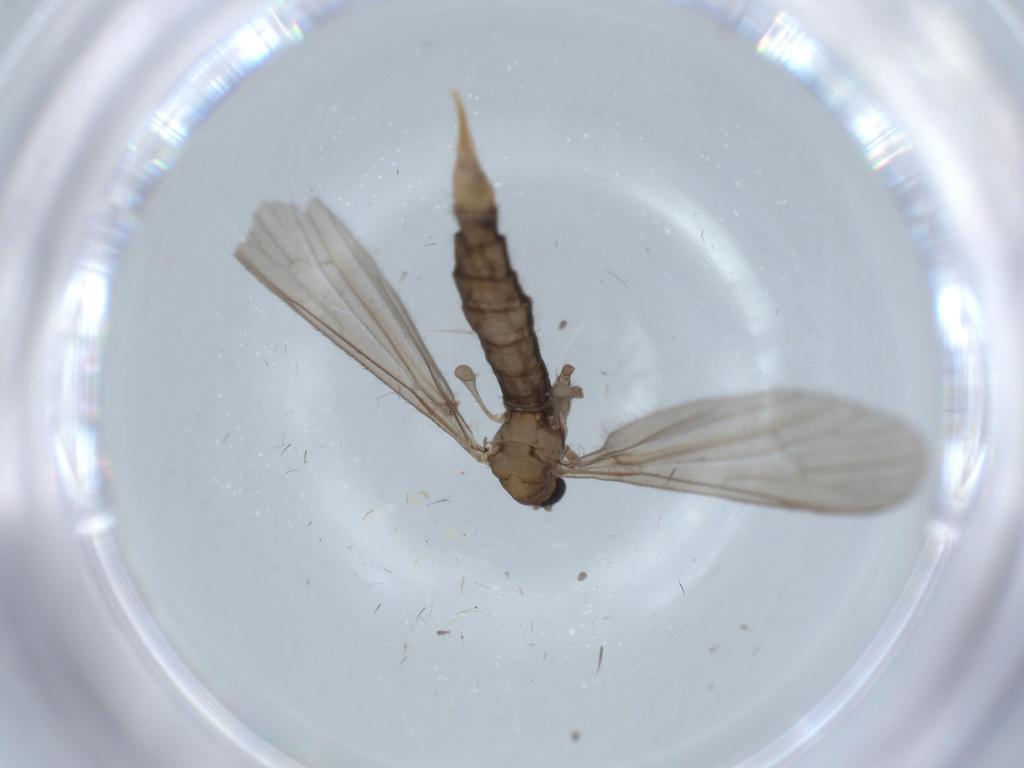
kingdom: Animalia
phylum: Arthropoda
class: Insecta
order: Diptera
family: Limoniidae
